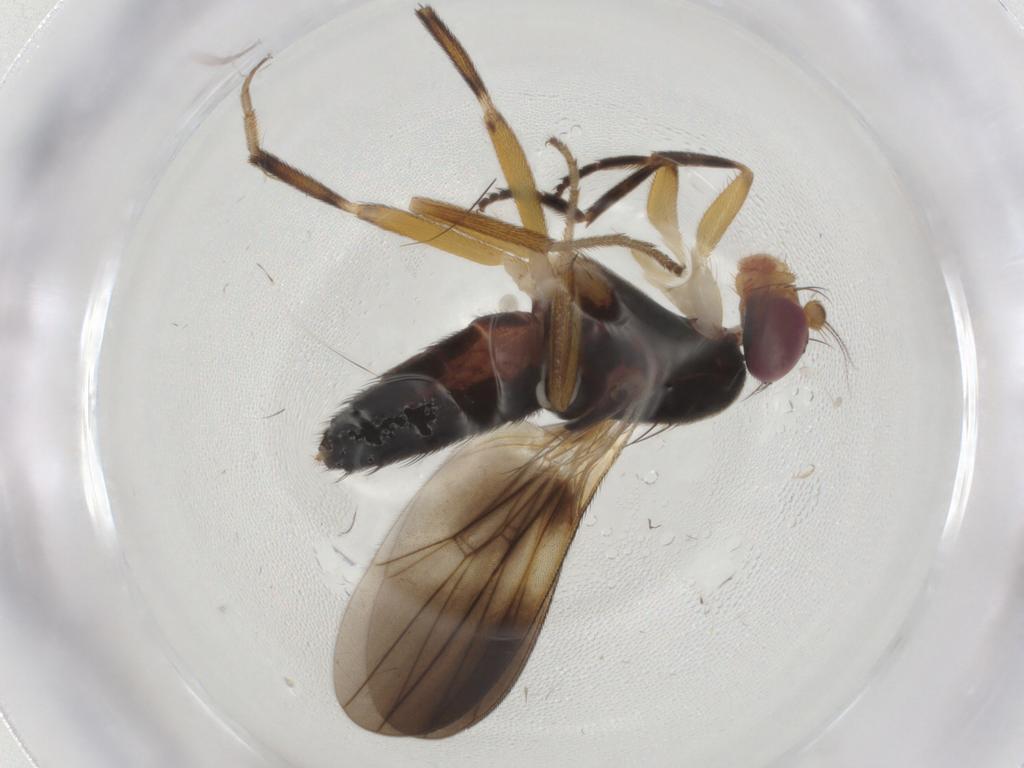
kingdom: Animalia
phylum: Arthropoda
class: Insecta
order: Diptera
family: Clusiidae
